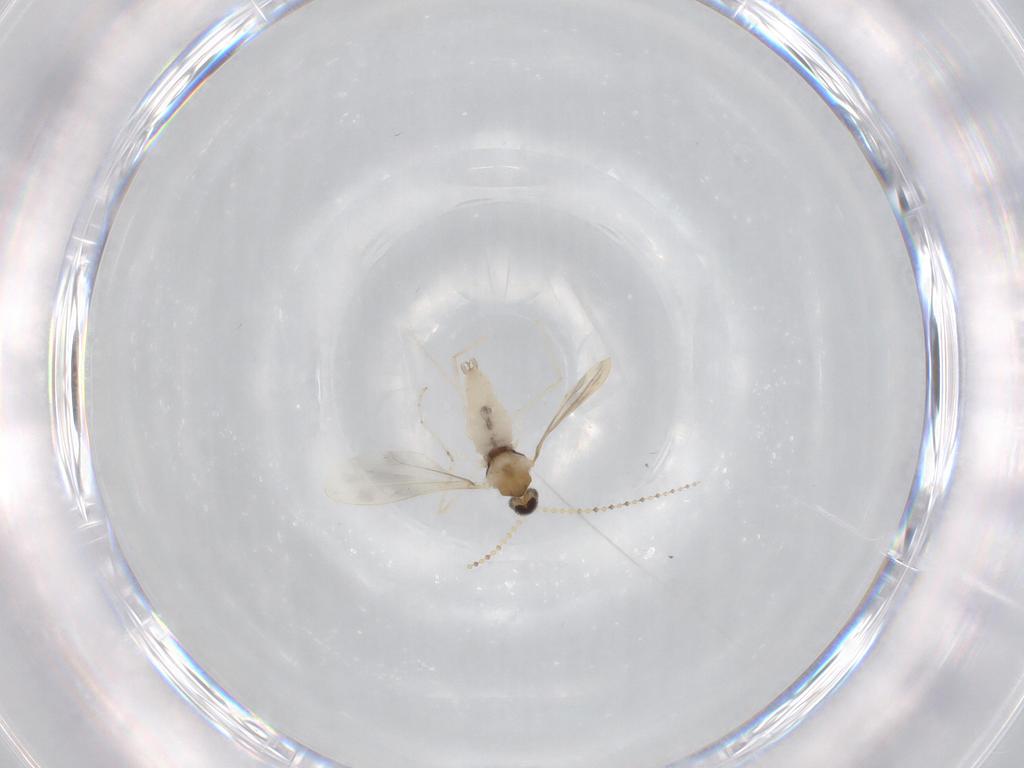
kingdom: Animalia
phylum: Arthropoda
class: Insecta
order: Diptera
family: Cecidomyiidae
